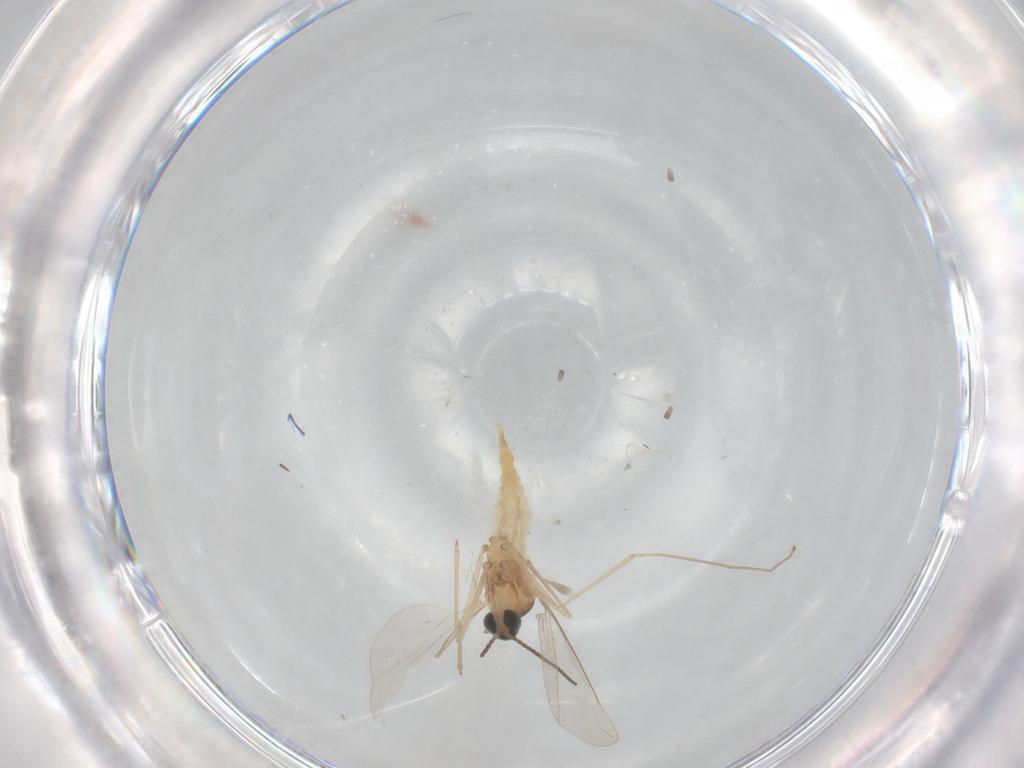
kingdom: Animalia
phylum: Arthropoda
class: Insecta
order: Diptera
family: Cecidomyiidae
